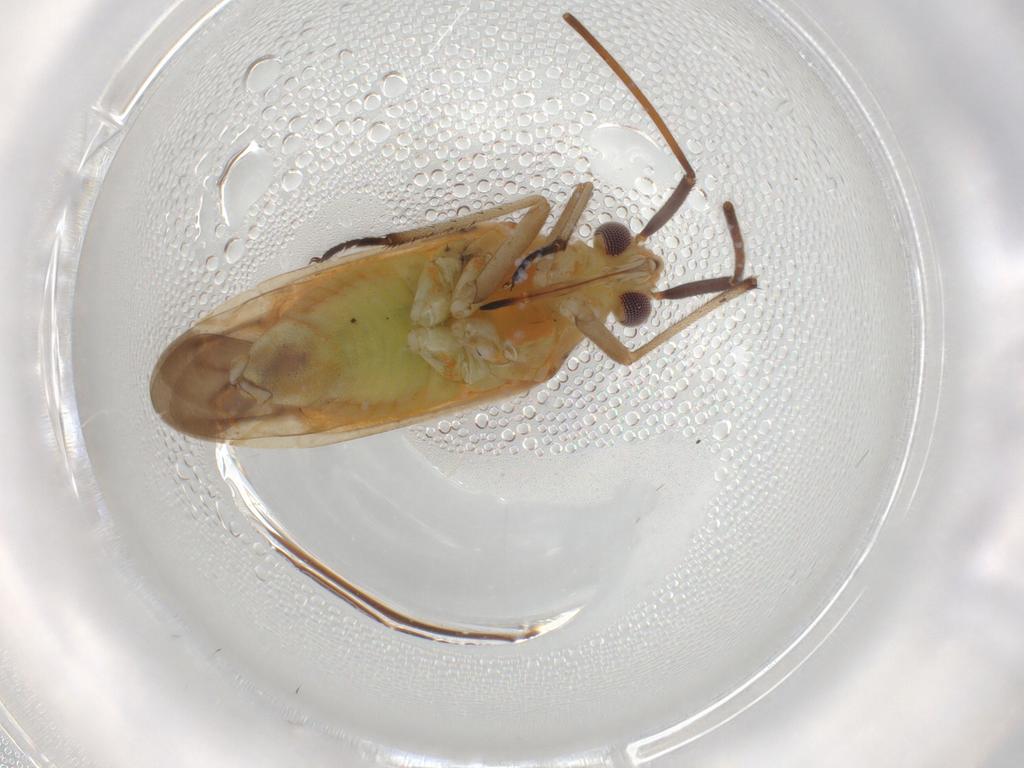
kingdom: Animalia
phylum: Arthropoda
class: Insecta
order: Hemiptera
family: Miridae
